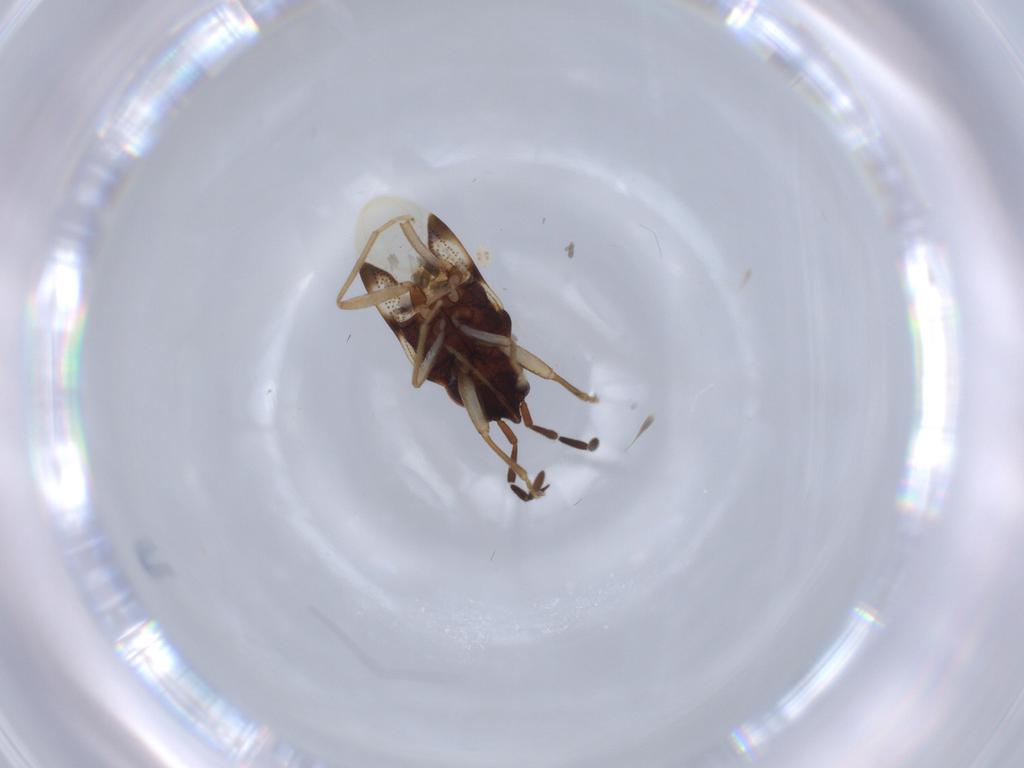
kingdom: Animalia
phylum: Arthropoda
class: Insecta
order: Hemiptera
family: Rhyparochromidae
